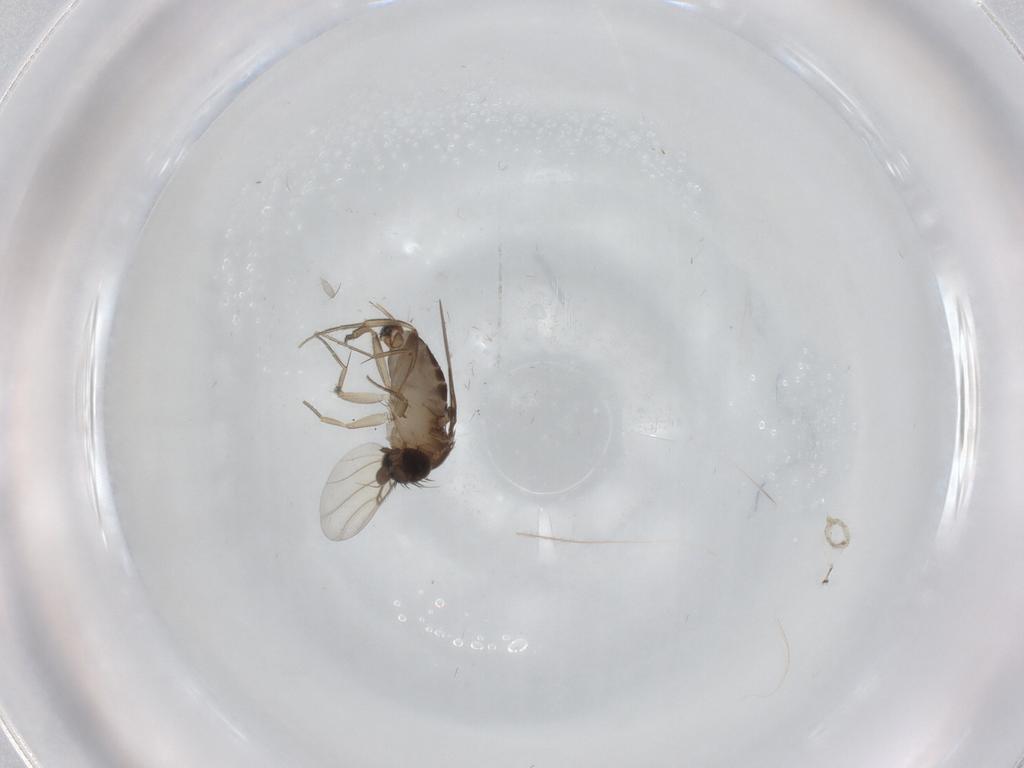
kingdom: Animalia
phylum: Arthropoda
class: Insecta
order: Diptera
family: Phoridae
